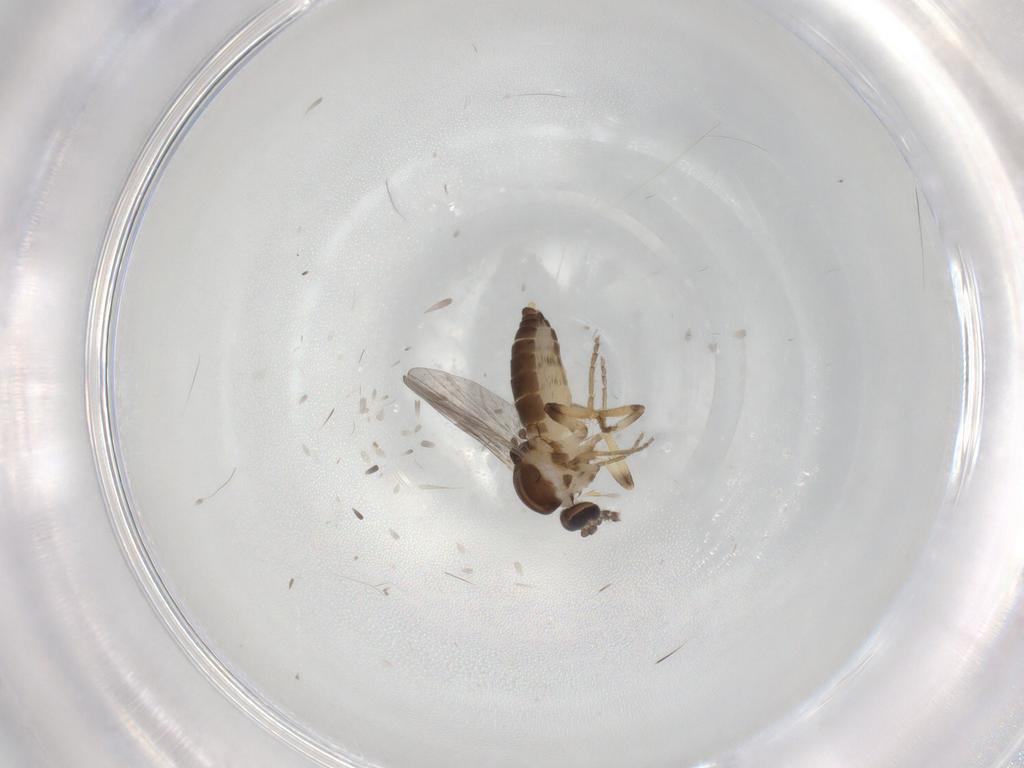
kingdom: Animalia
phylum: Arthropoda
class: Insecta
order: Diptera
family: Ceratopogonidae
